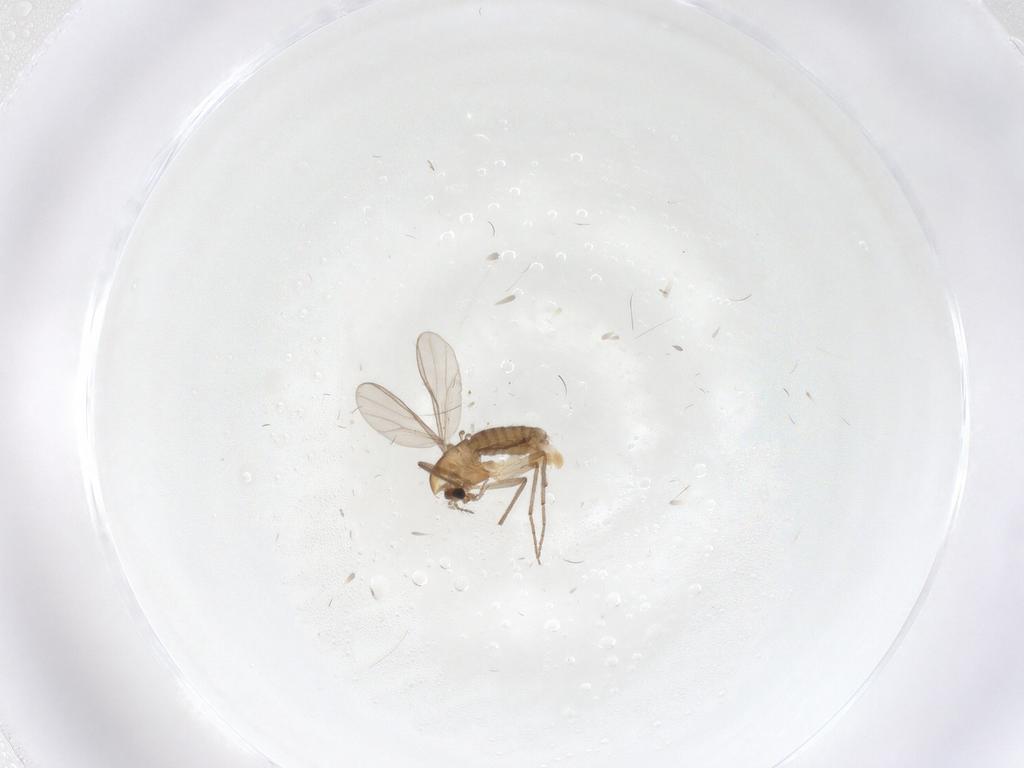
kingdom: Animalia
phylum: Arthropoda
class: Insecta
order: Diptera
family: Chironomidae
